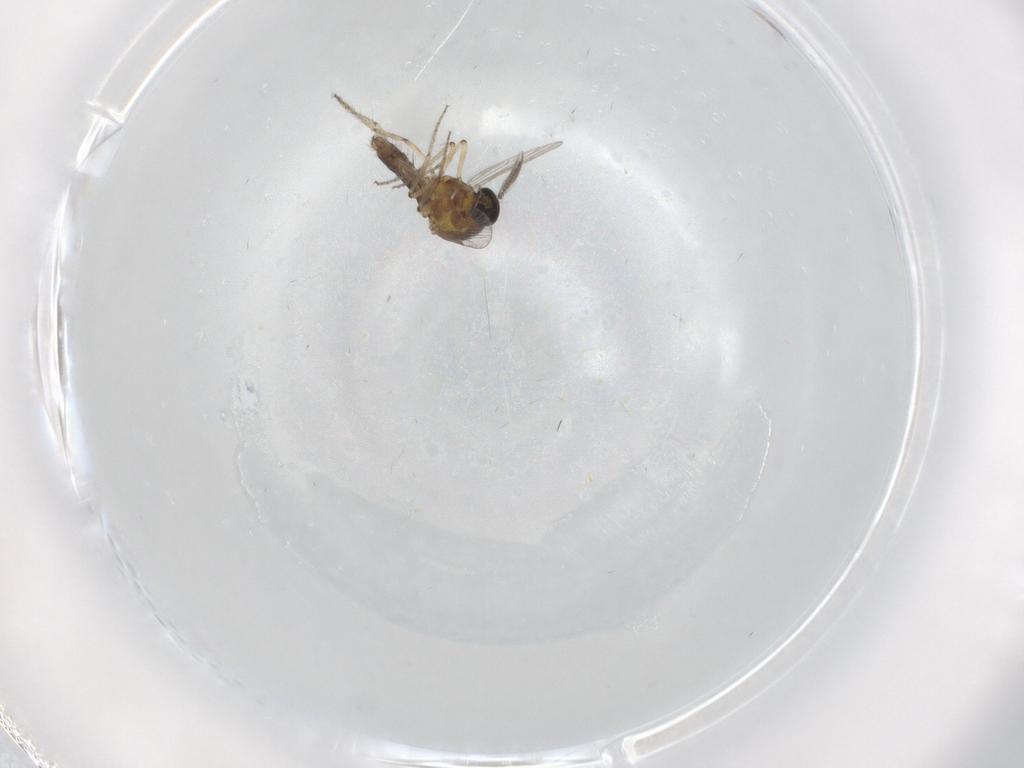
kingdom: Animalia
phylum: Arthropoda
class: Insecta
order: Diptera
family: Ceratopogonidae
